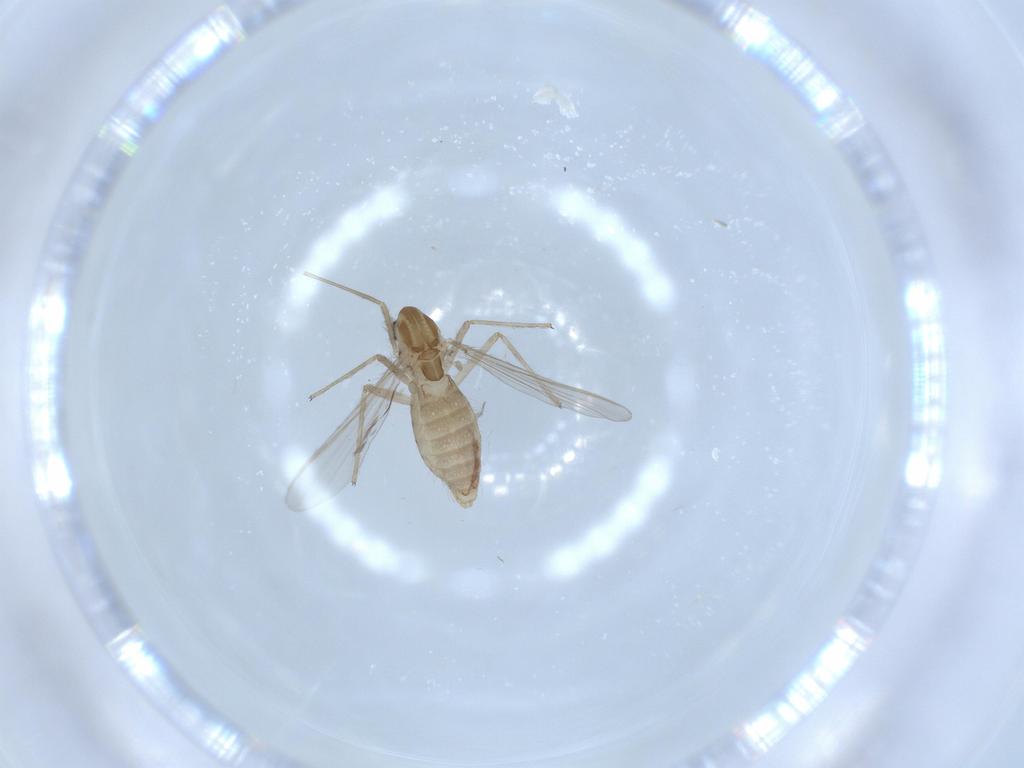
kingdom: Animalia
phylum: Arthropoda
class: Insecta
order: Diptera
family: Chironomidae
